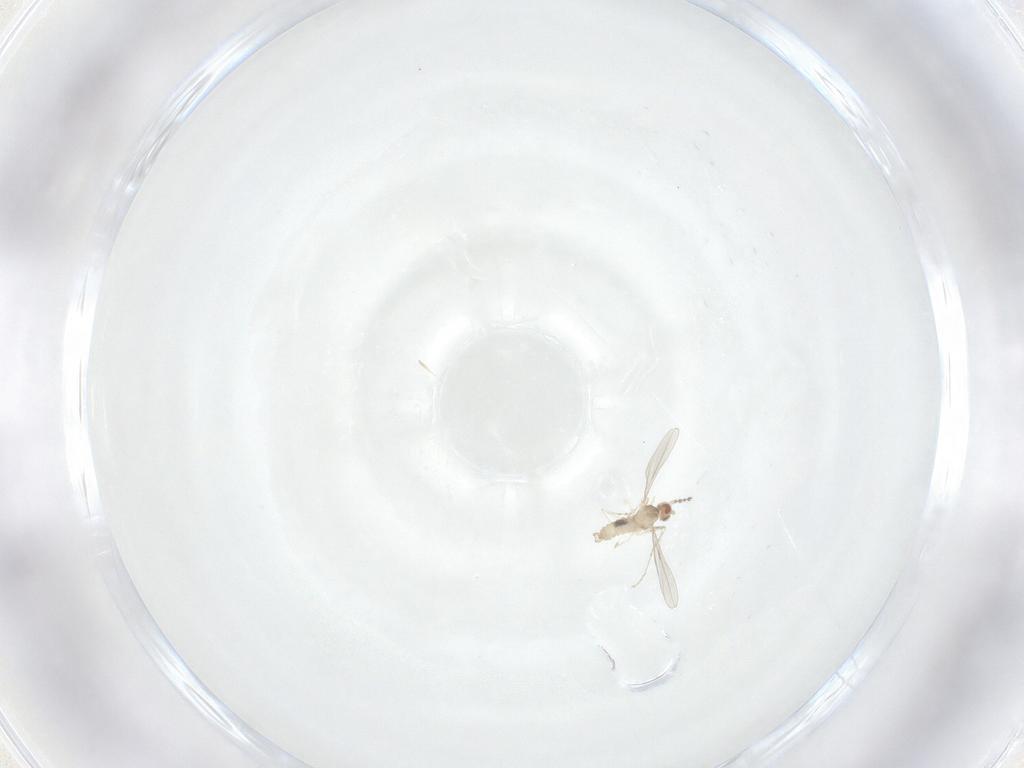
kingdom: Animalia
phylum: Arthropoda
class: Insecta
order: Diptera
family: Cecidomyiidae
